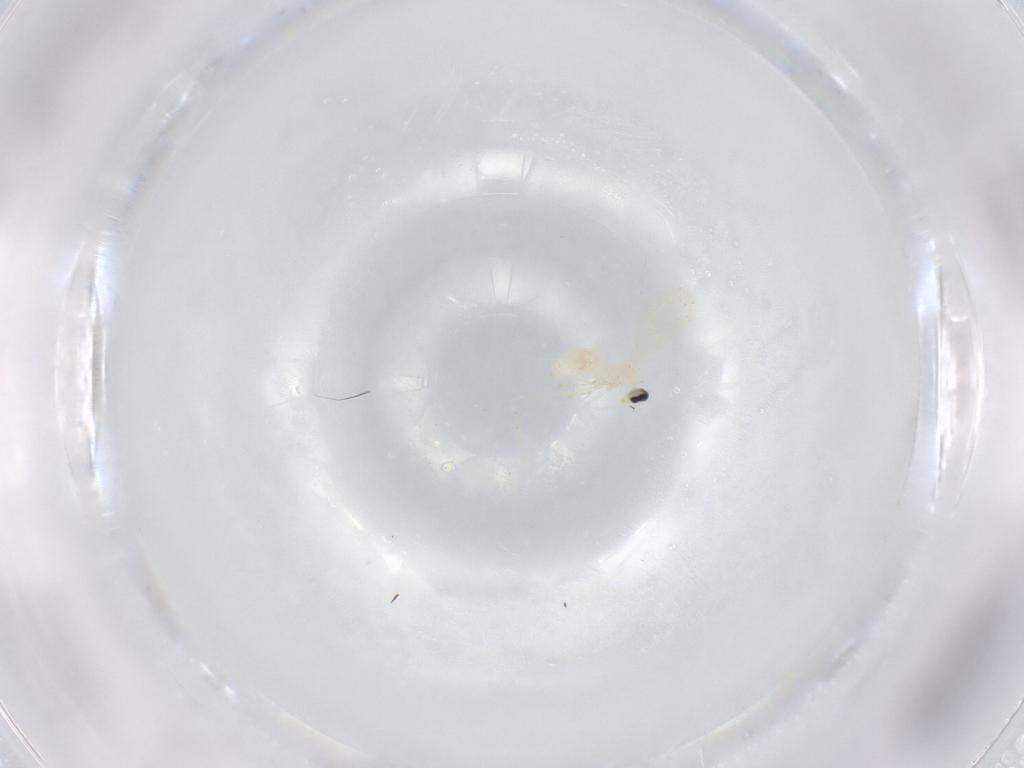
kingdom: Animalia
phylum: Arthropoda
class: Insecta
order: Diptera
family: Cecidomyiidae
